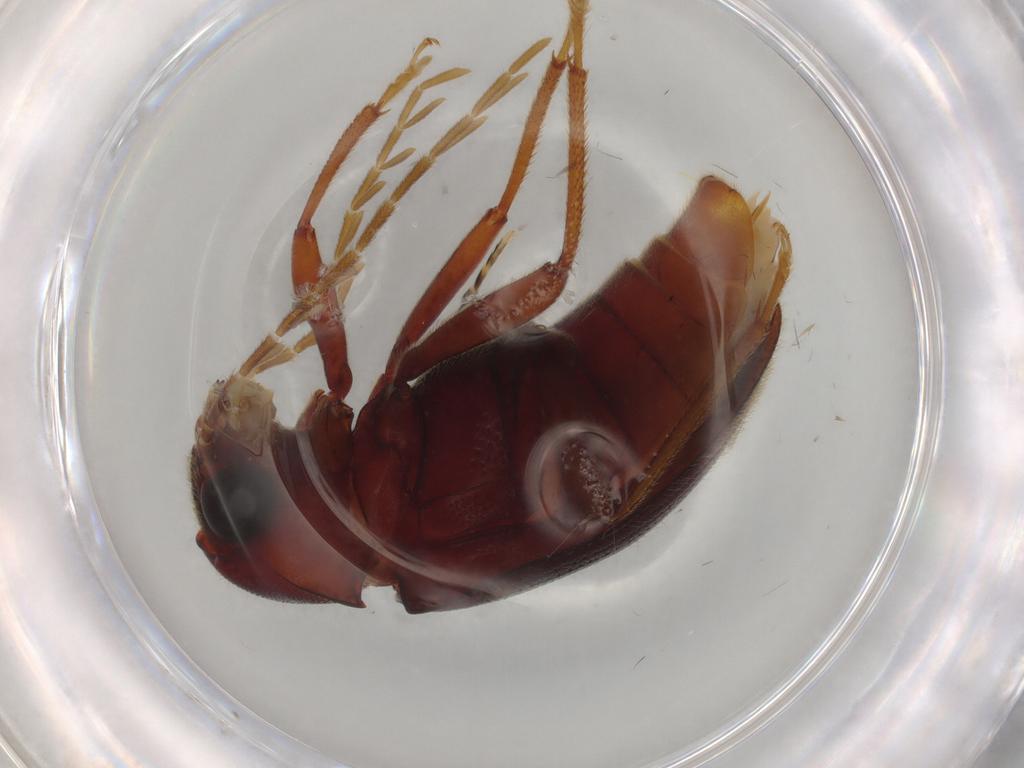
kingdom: Animalia
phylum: Arthropoda
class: Insecta
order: Coleoptera
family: Ptilodactylidae
